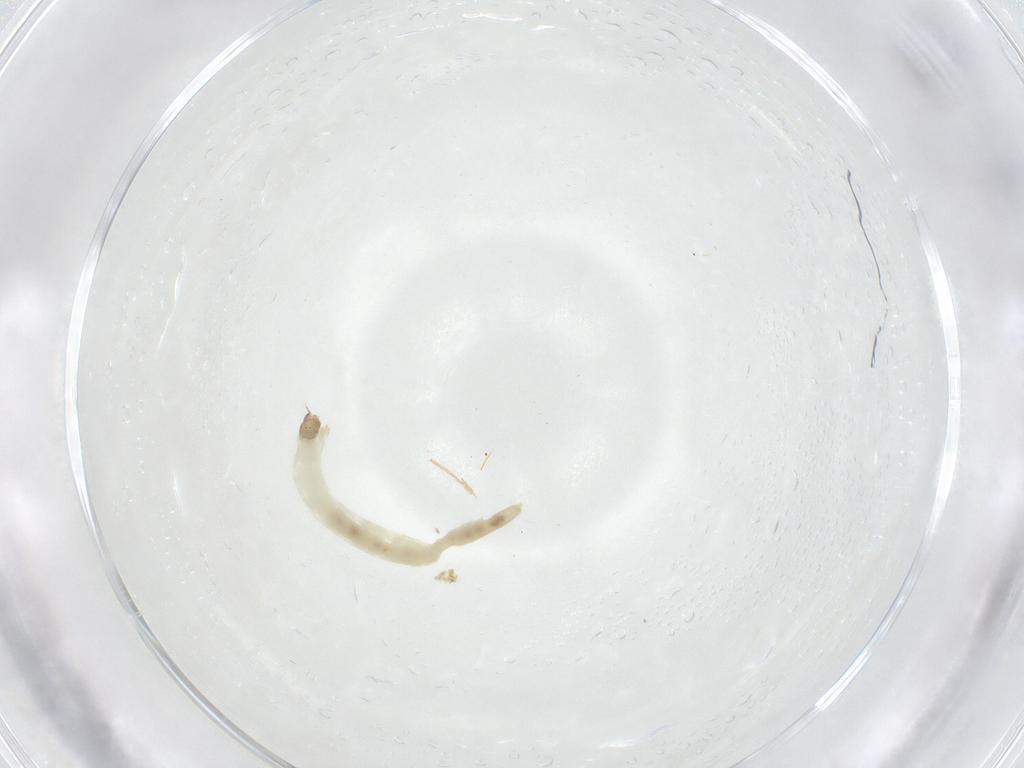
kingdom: Animalia
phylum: Arthropoda
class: Insecta
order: Diptera
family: Chironomidae
